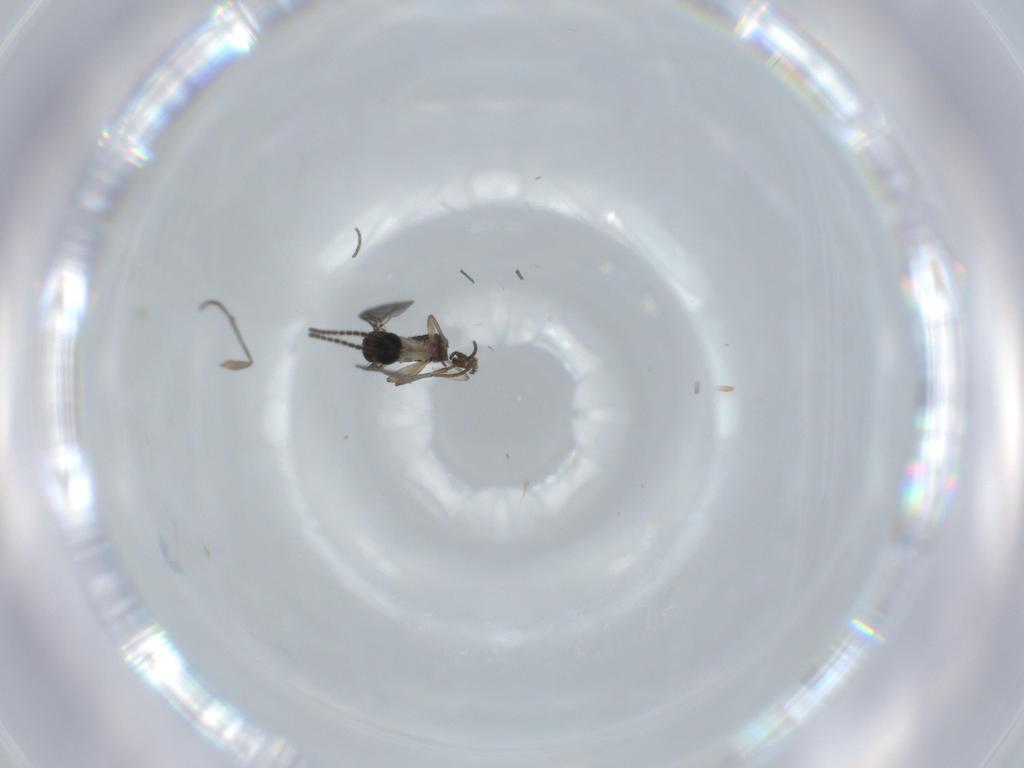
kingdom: Animalia
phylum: Arthropoda
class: Insecta
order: Diptera
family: Sciaridae
